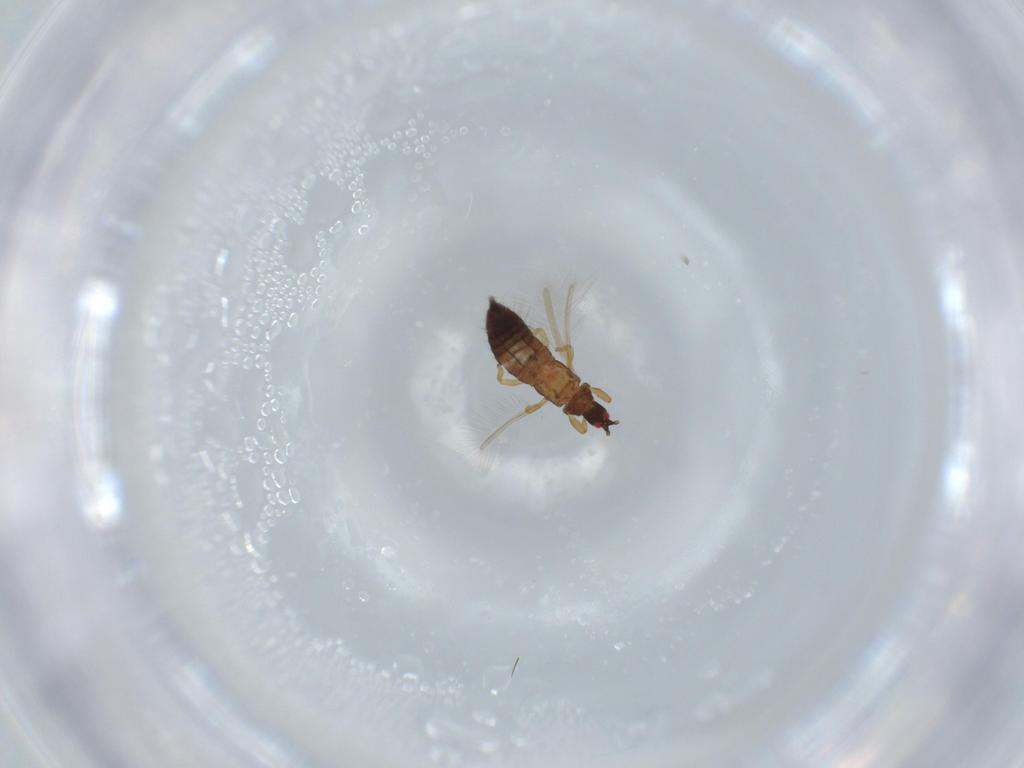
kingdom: Animalia
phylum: Arthropoda
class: Insecta
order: Thysanoptera
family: Phlaeothripidae
